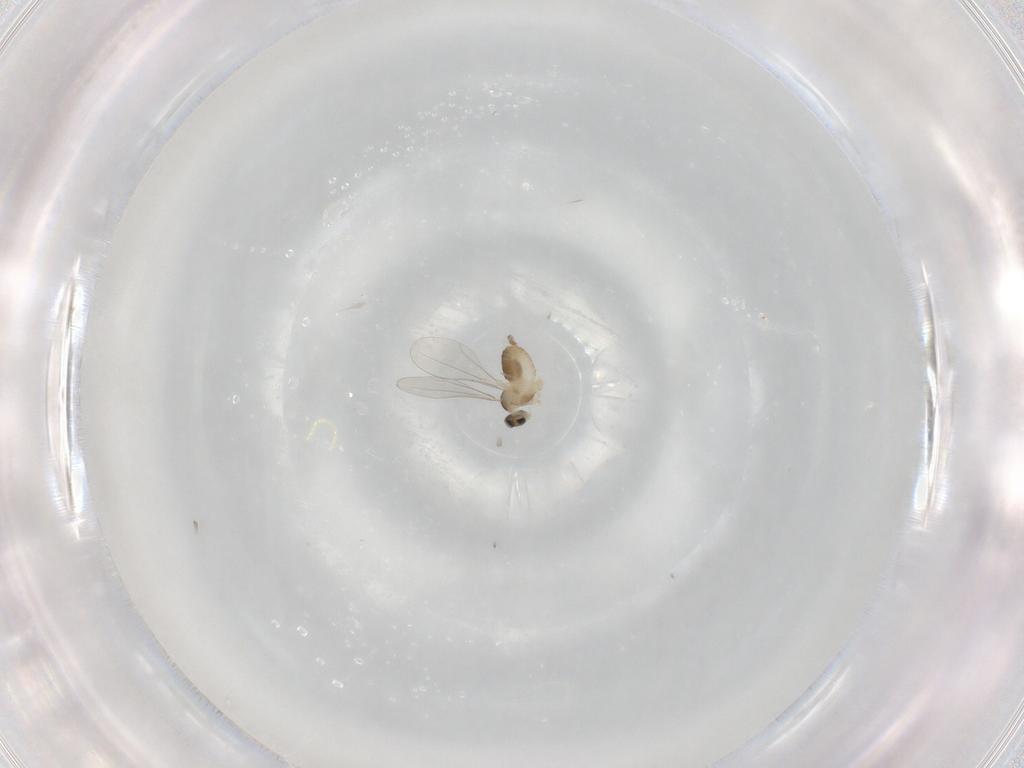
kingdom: Animalia
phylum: Arthropoda
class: Insecta
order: Diptera
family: Cecidomyiidae
